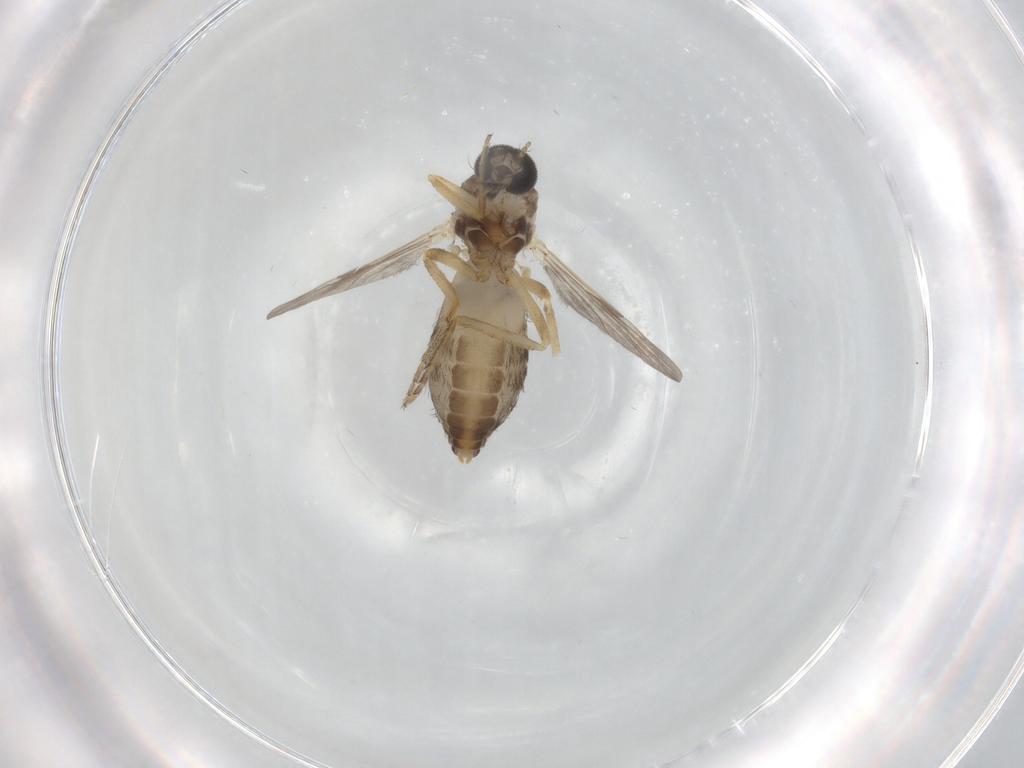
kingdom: Animalia
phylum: Arthropoda
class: Insecta
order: Diptera
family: Ceratopogonidae
